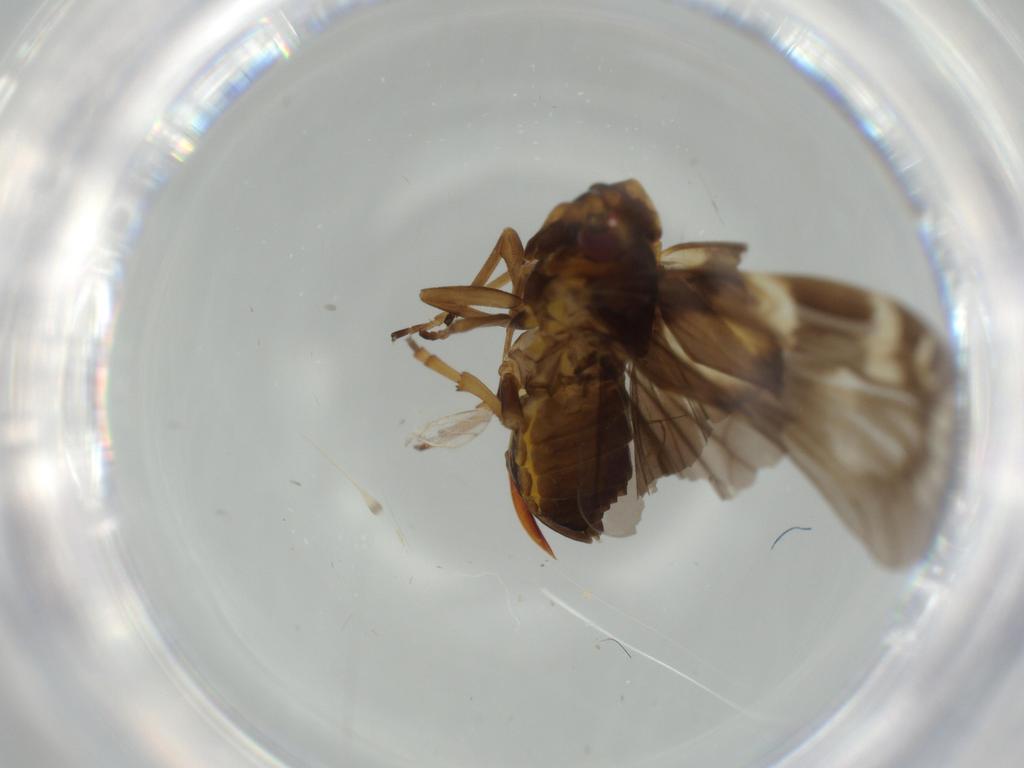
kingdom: Animalia
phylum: Arthropoda
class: Insecta
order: Hemiptera
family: Cixiidae
